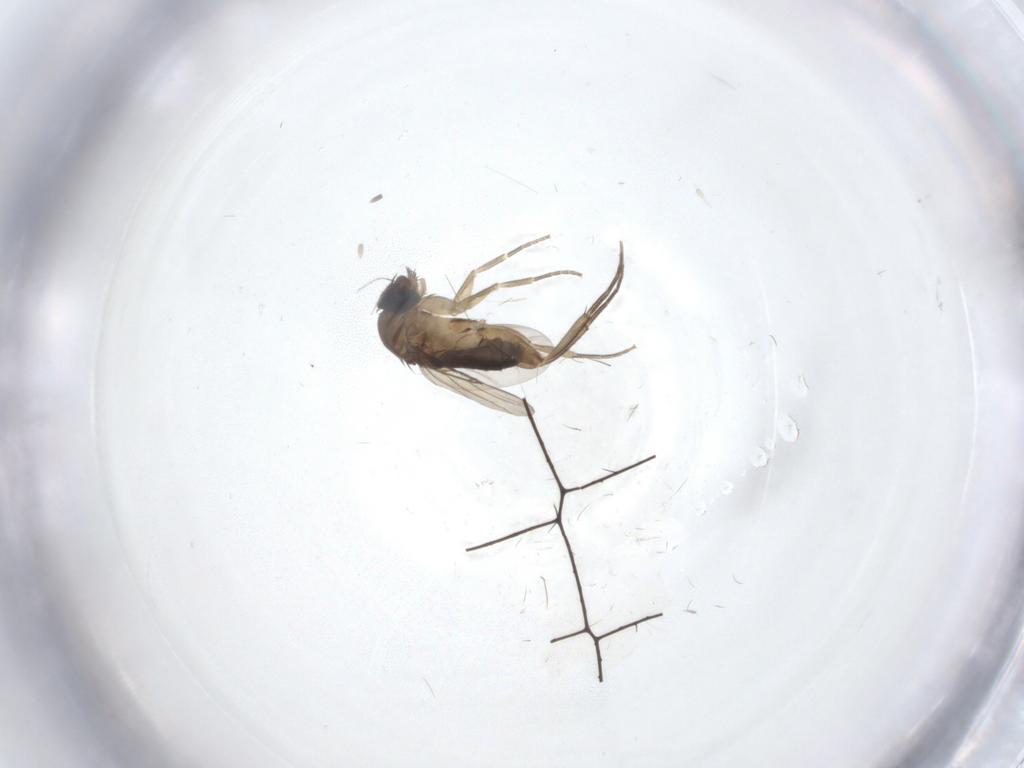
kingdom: Animalia
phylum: Arthropoda
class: Insecta
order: Diptera
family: Phoridae
